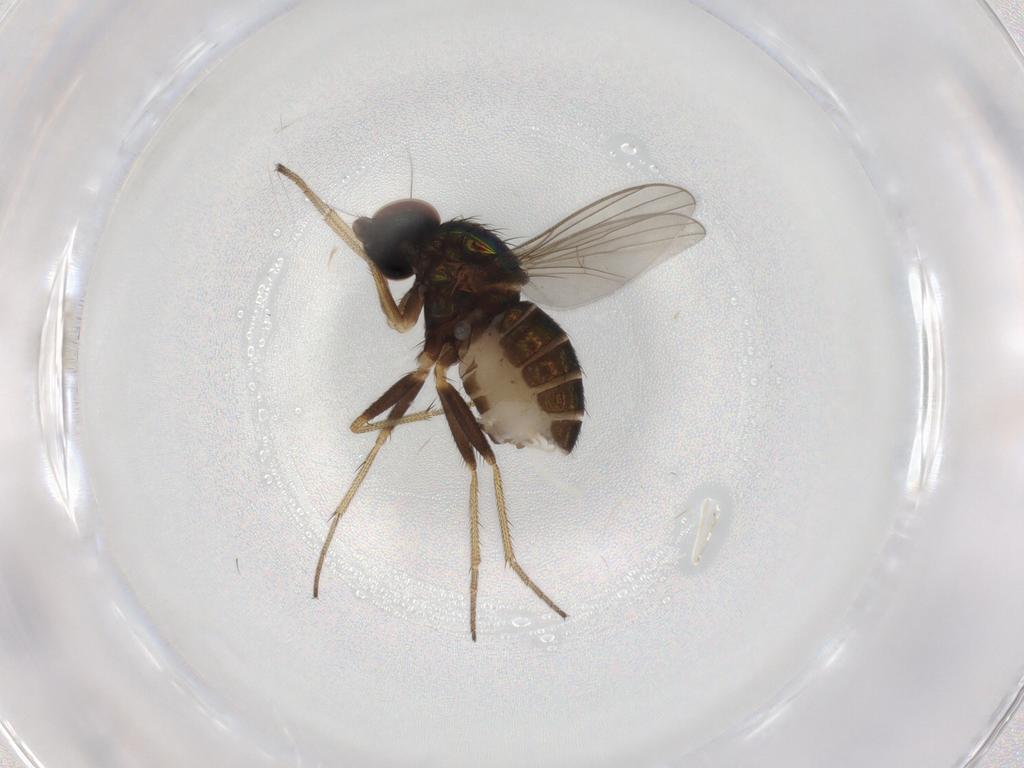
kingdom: Animalia
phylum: Arthropoda
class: Insecta
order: Diptera
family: Dolichopodidae
